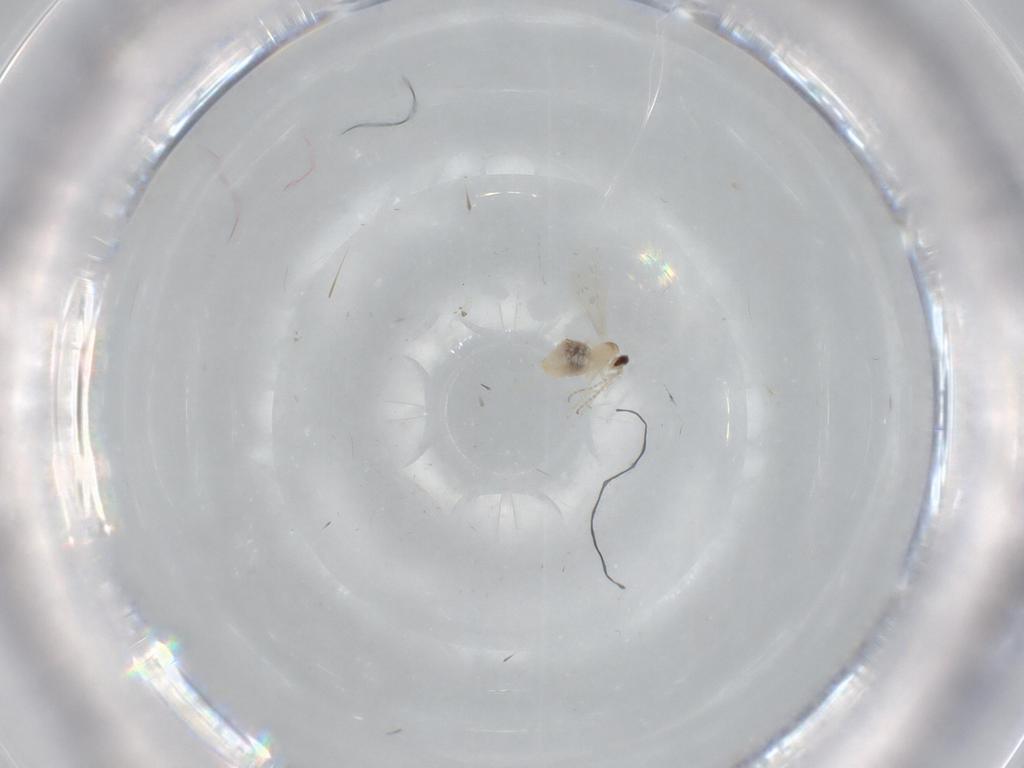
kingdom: Animalia
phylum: Arthropoda
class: Insecta
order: Diptera
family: Cecidomyiidae
